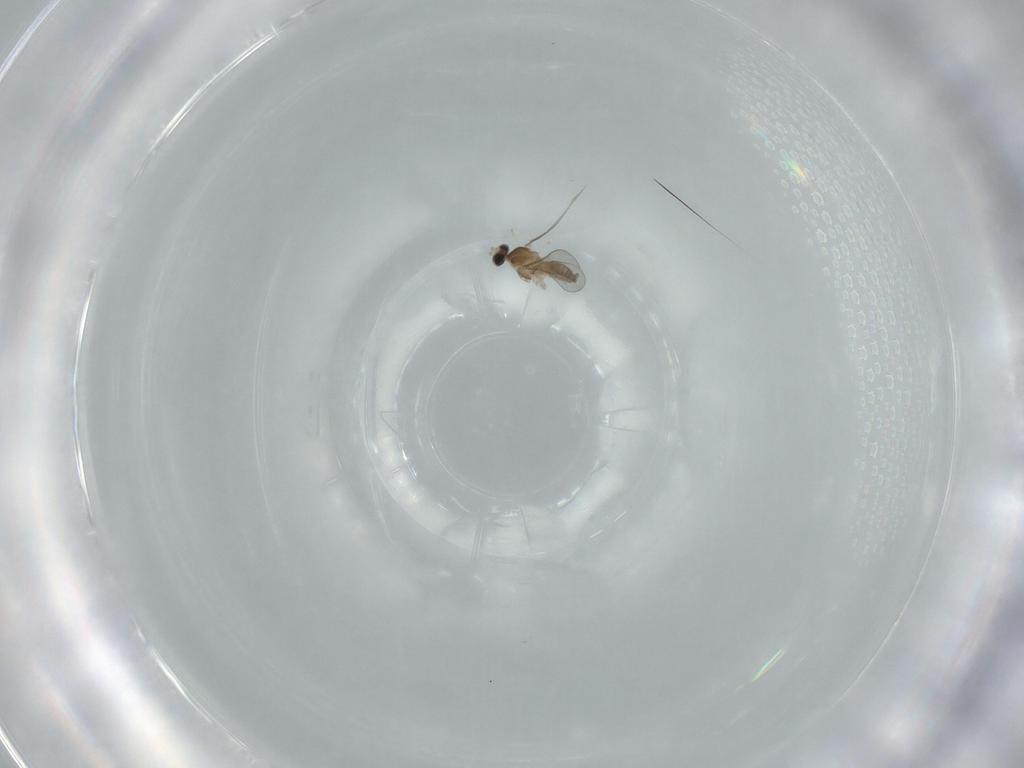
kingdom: Animalia
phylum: Arthropoda
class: Insecta
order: Diptera
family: Cecidomyiidae
